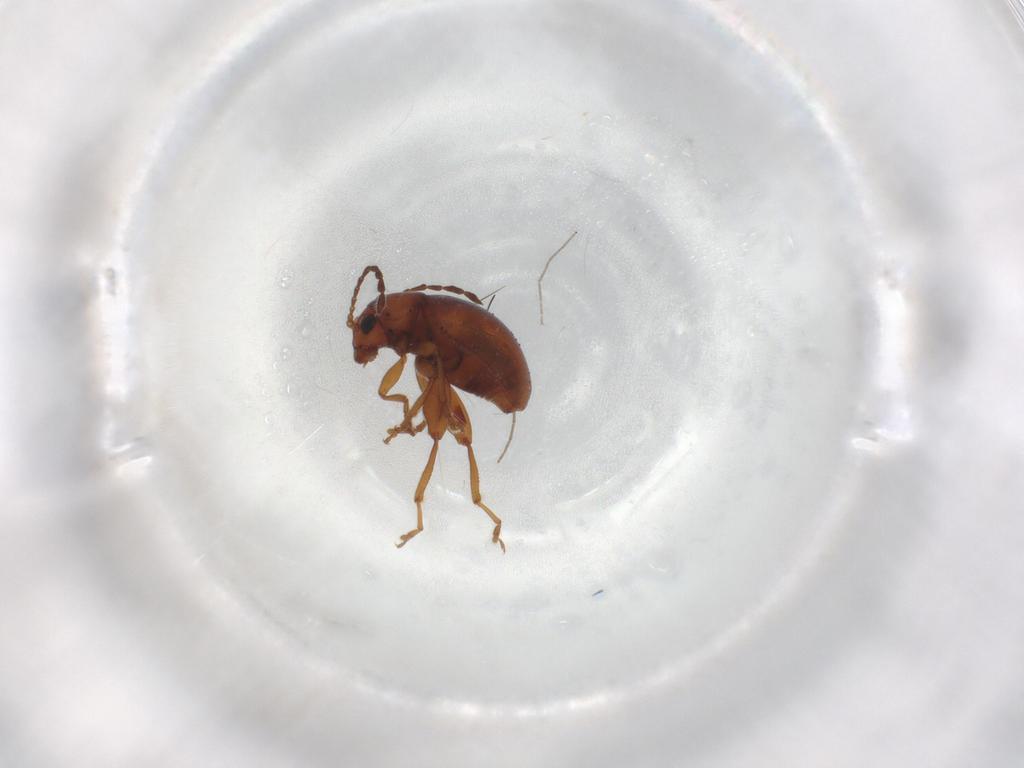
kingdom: Animalia
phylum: Arthropoda
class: Insecta
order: Coleoptera
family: Chrysomelidae
